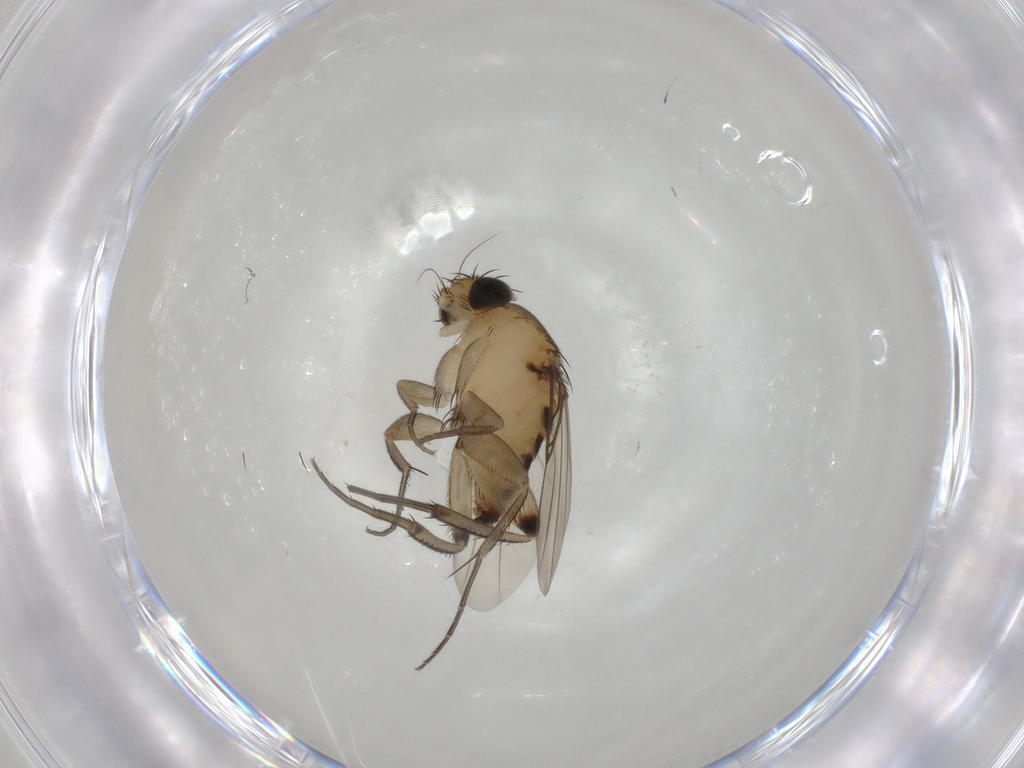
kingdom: Animalia
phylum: Arthropoda
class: Insecta
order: Diptera
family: Phoridae
